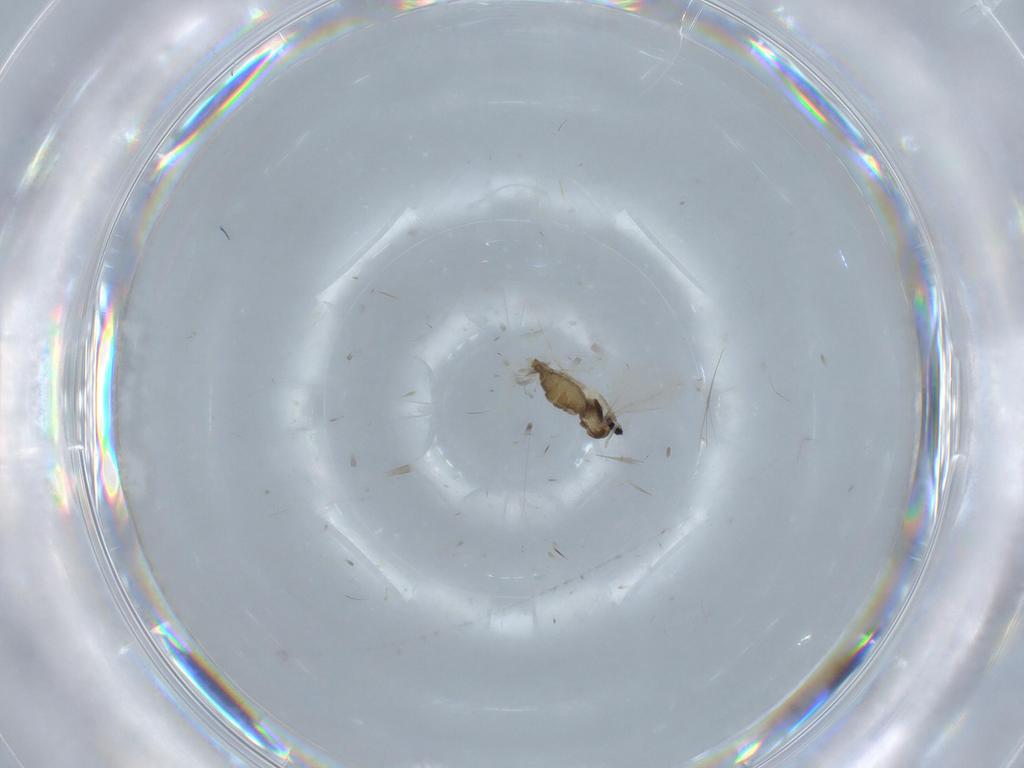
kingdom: Animalia
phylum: Arthropoda
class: Insecta
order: Diptera
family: Cecidomyiidae
